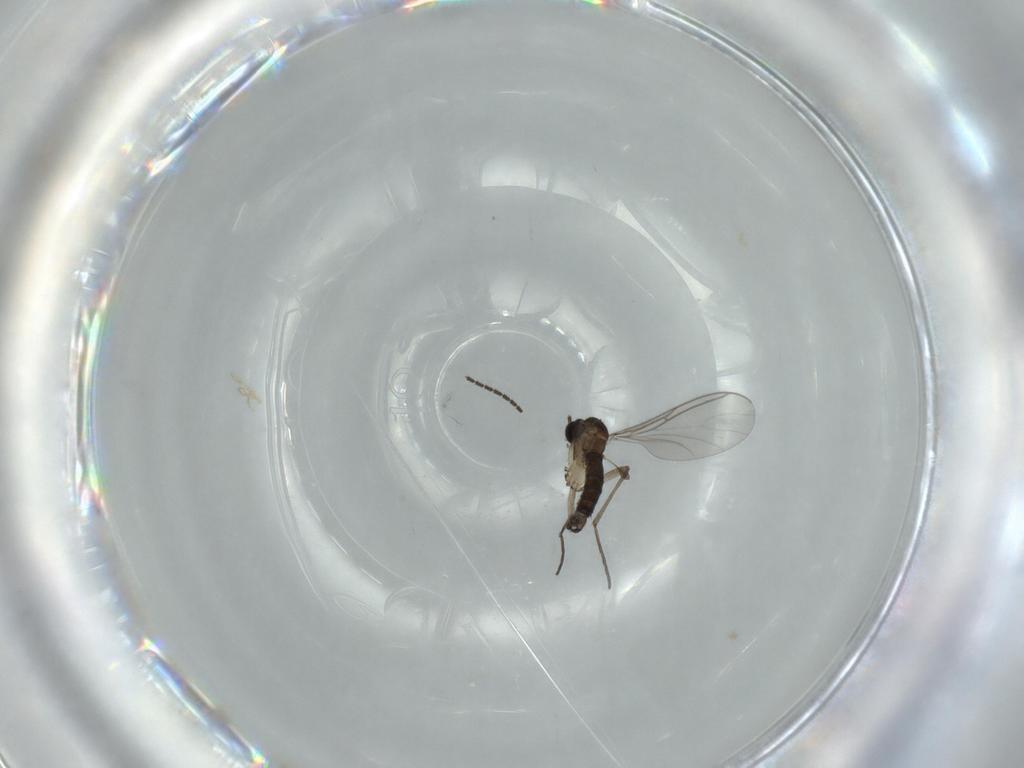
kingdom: Animalia
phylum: Arthropoda
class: Insecta
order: Diptera
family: Sciaridae
